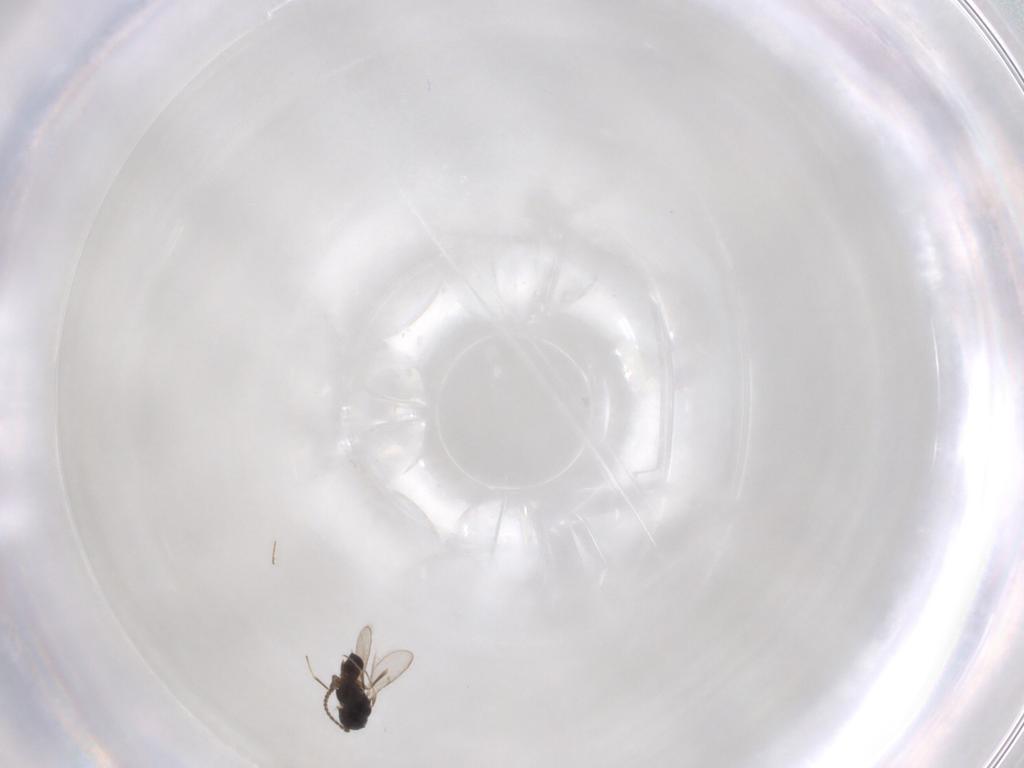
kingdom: Animalia
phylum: Arthropoda
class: Insecta
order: Hymenoptera
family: Scelionidae
